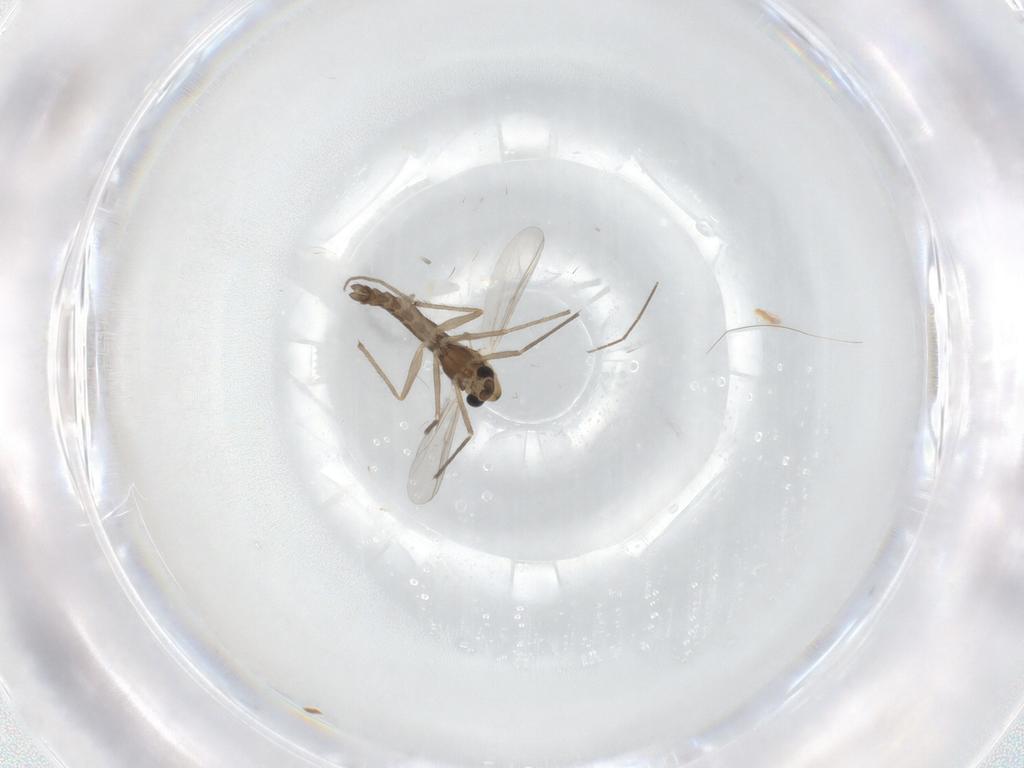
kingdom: Animalia
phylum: Arthropoda
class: Insecta
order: Diptera
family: Chironomidae
